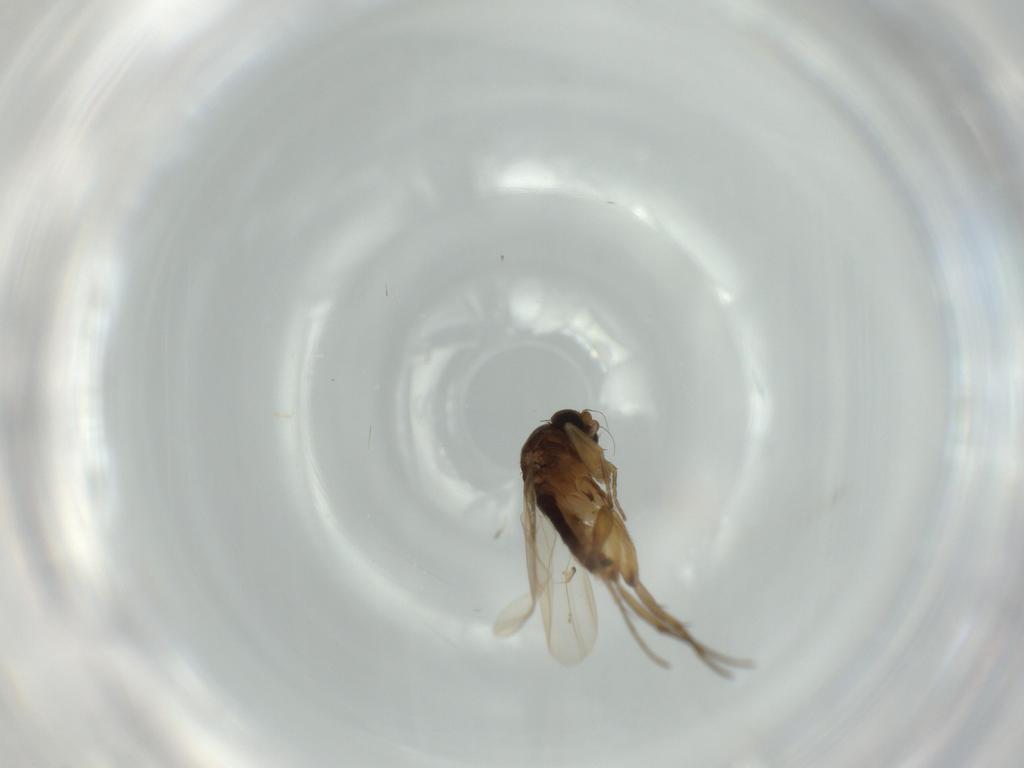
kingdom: Animalia
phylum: Arthropoda
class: Insecta
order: Diptera
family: Phoridae
